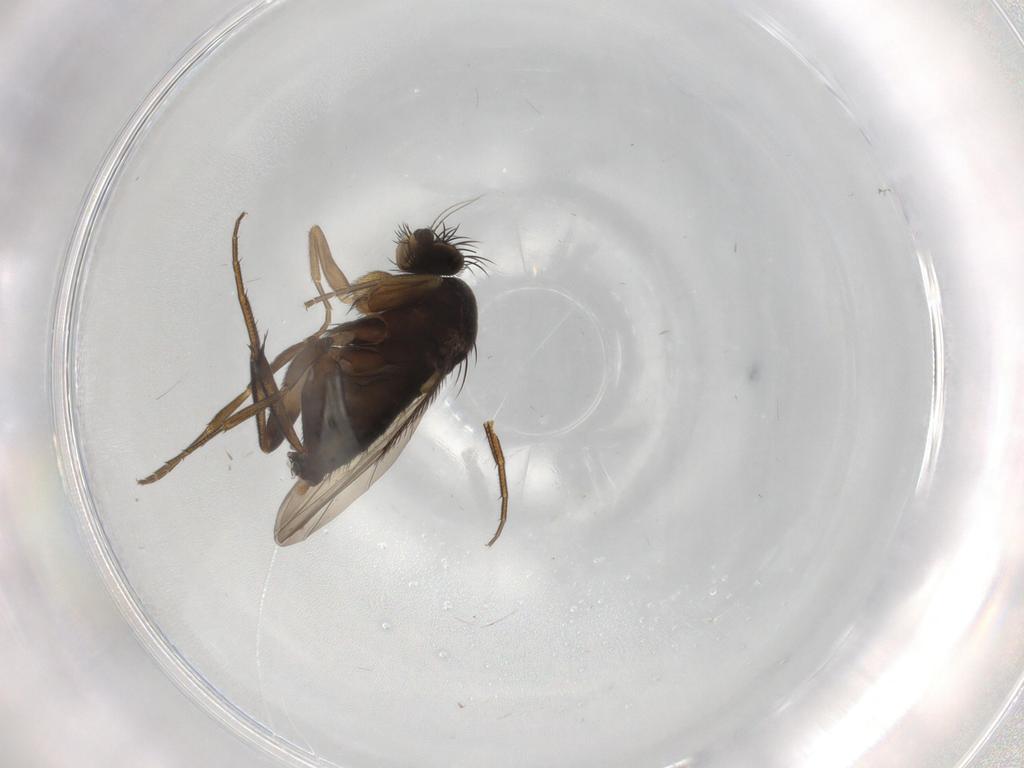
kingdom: Animalia
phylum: Arthropoda
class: Insecta
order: Diptera
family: Phoridae
